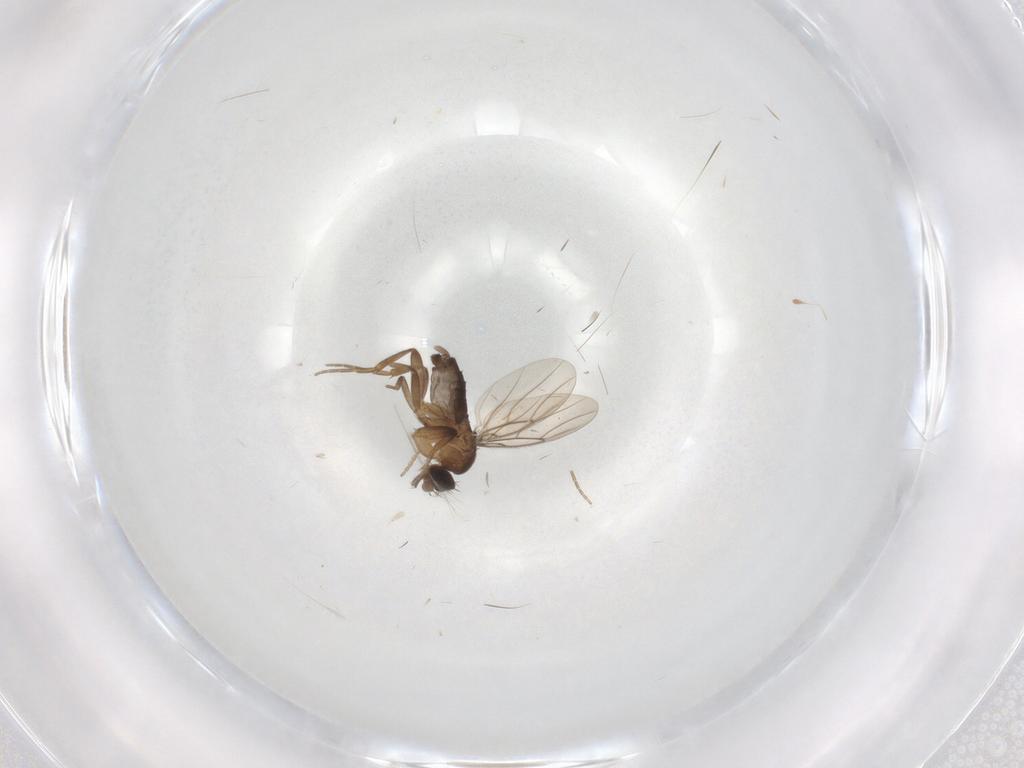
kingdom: Animalia
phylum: Arthropoda
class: Insecta
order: Diptera
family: Phoridae
